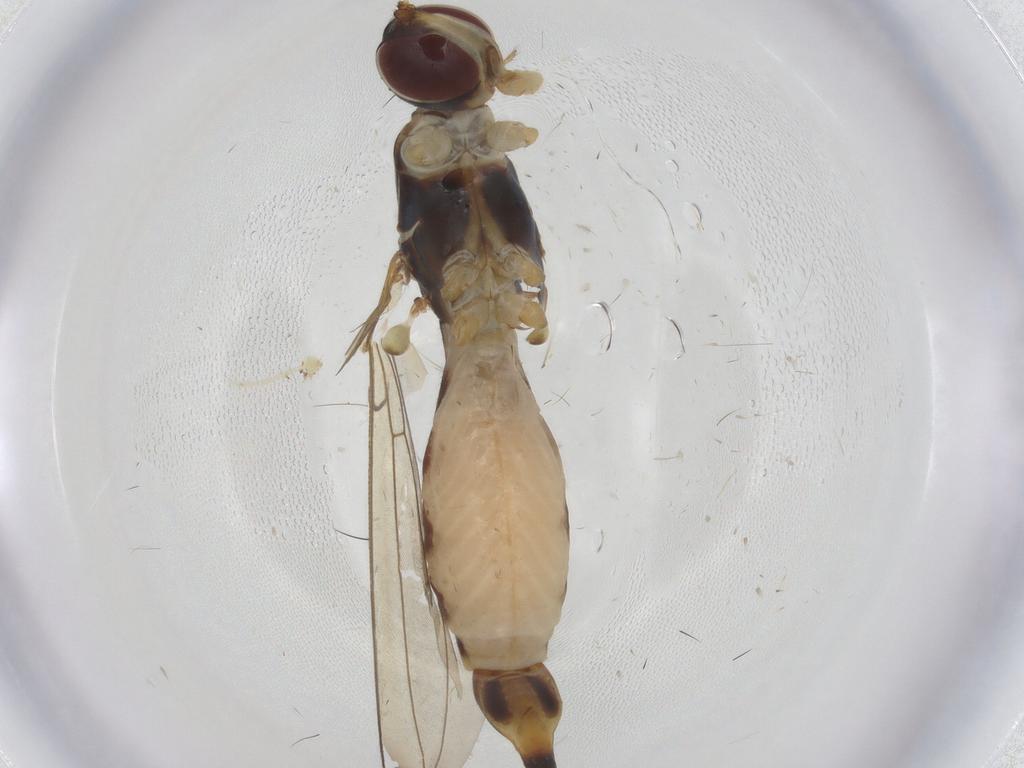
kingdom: Animalia
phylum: Arthropoda
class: Insecta
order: Diptera
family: Micropezidae
